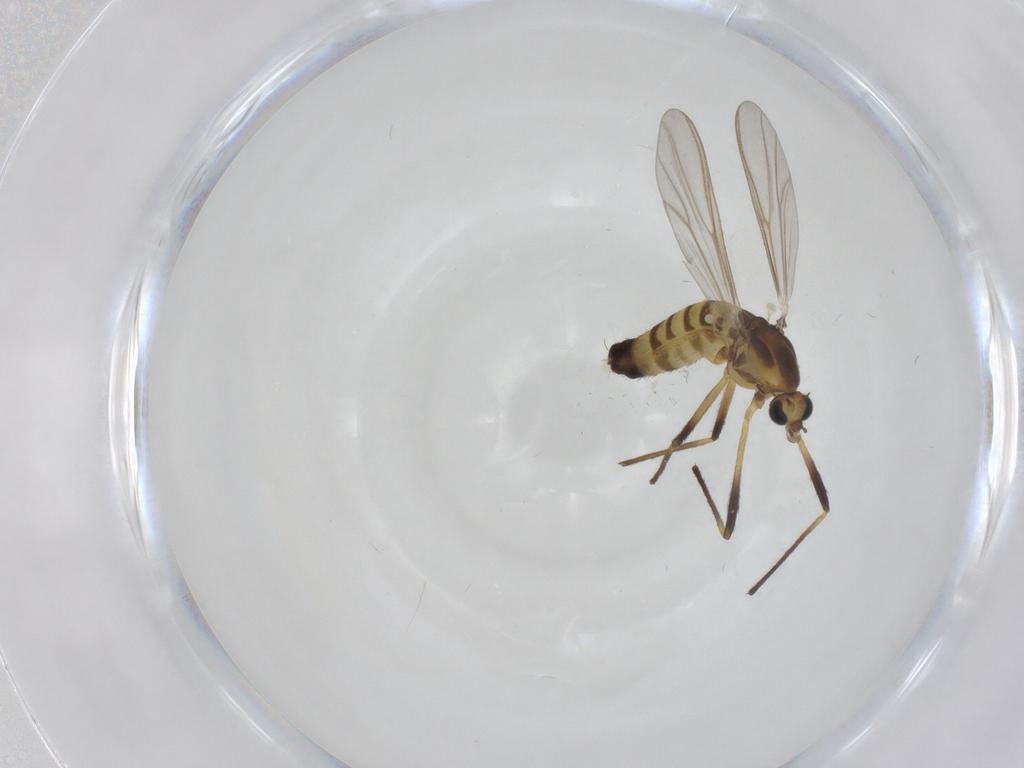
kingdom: Animalia
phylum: Arthropoda
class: Insecta
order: Diptera
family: Chironomidae
